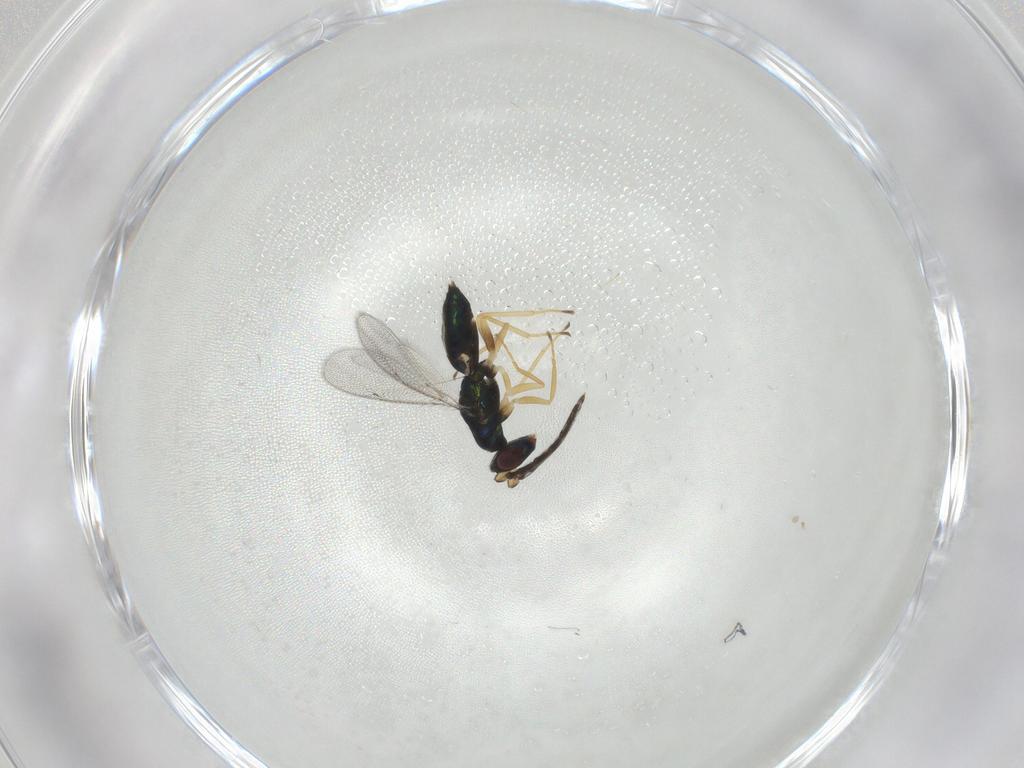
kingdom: Animalia
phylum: Arthropoda
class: Insecta
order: Hymenoptera
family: Eulophidae
